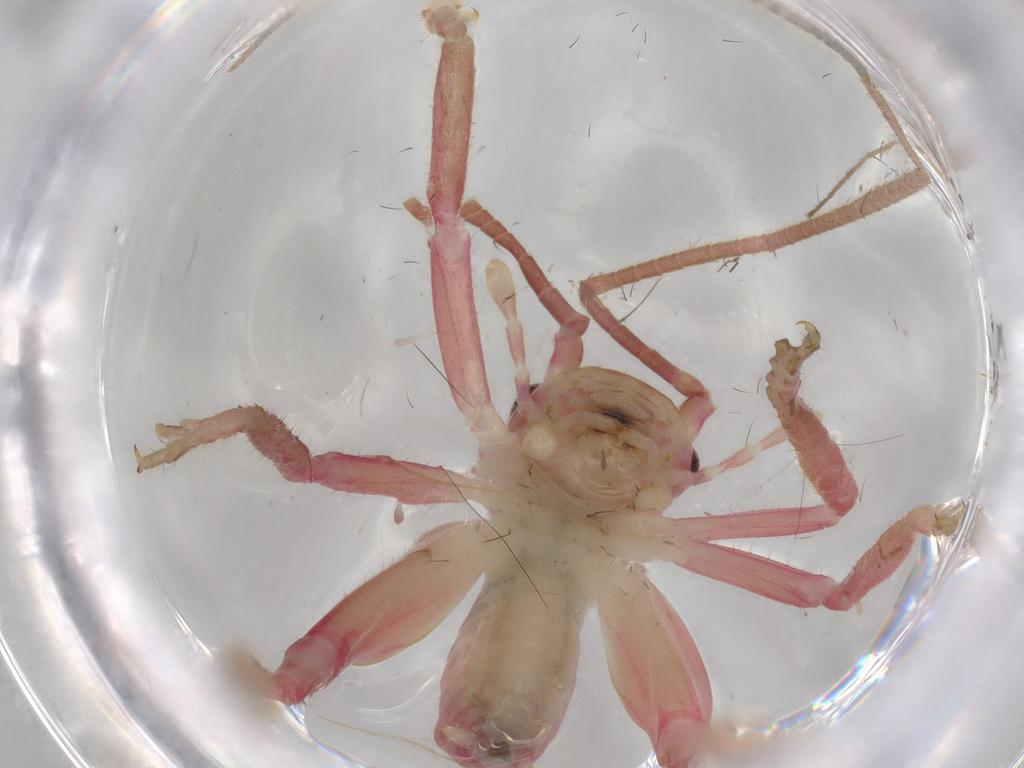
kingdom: Animalia
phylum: Arthropoda
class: Insecta
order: Orthoptera
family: Gryllacrididae
